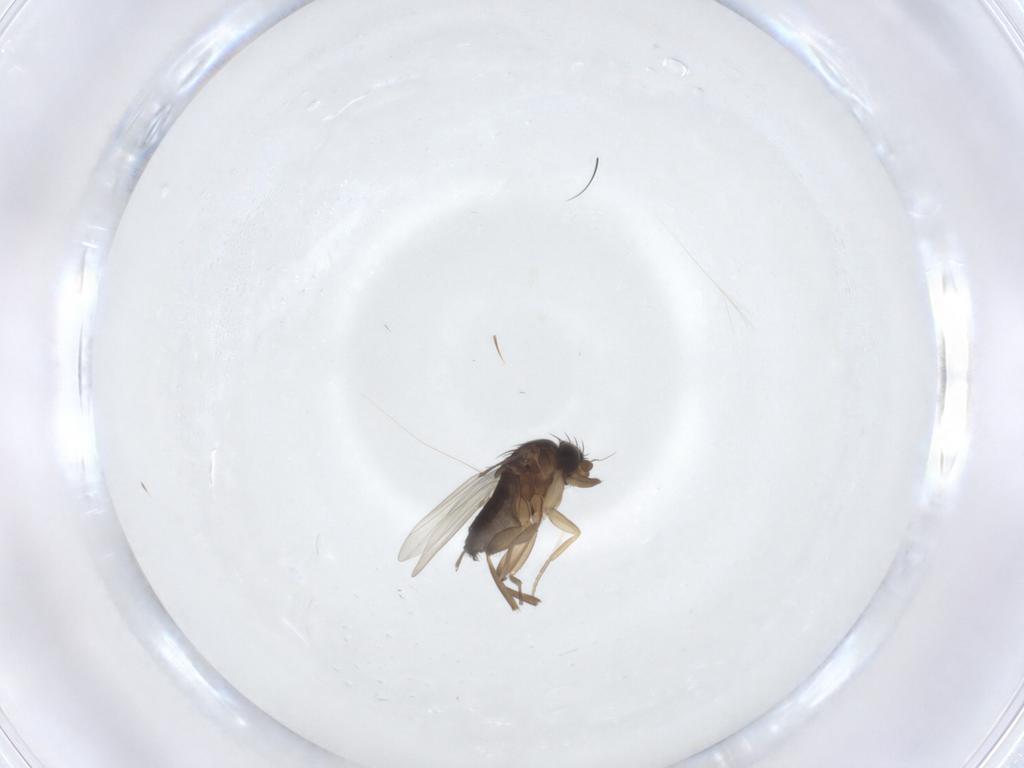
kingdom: Animalia
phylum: Arthropoda
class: Insecta
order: Diptera
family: Phoridae
